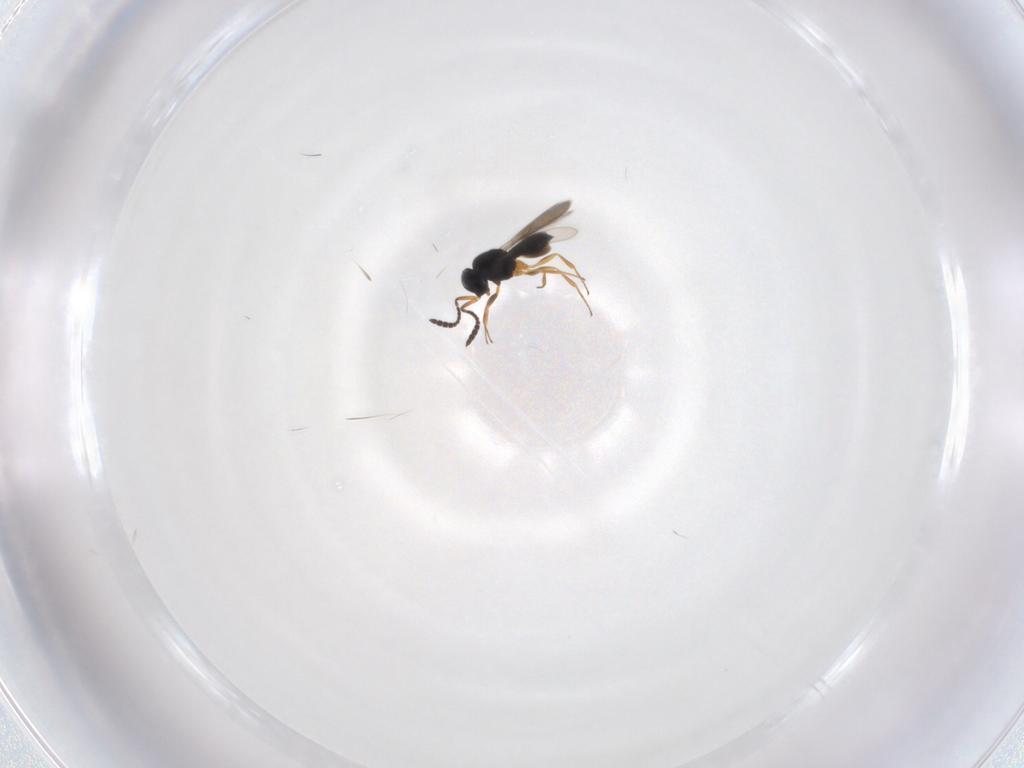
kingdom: Animalia
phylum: Arthropoda
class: Insecta
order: Hymenoptera
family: Scelionidae
